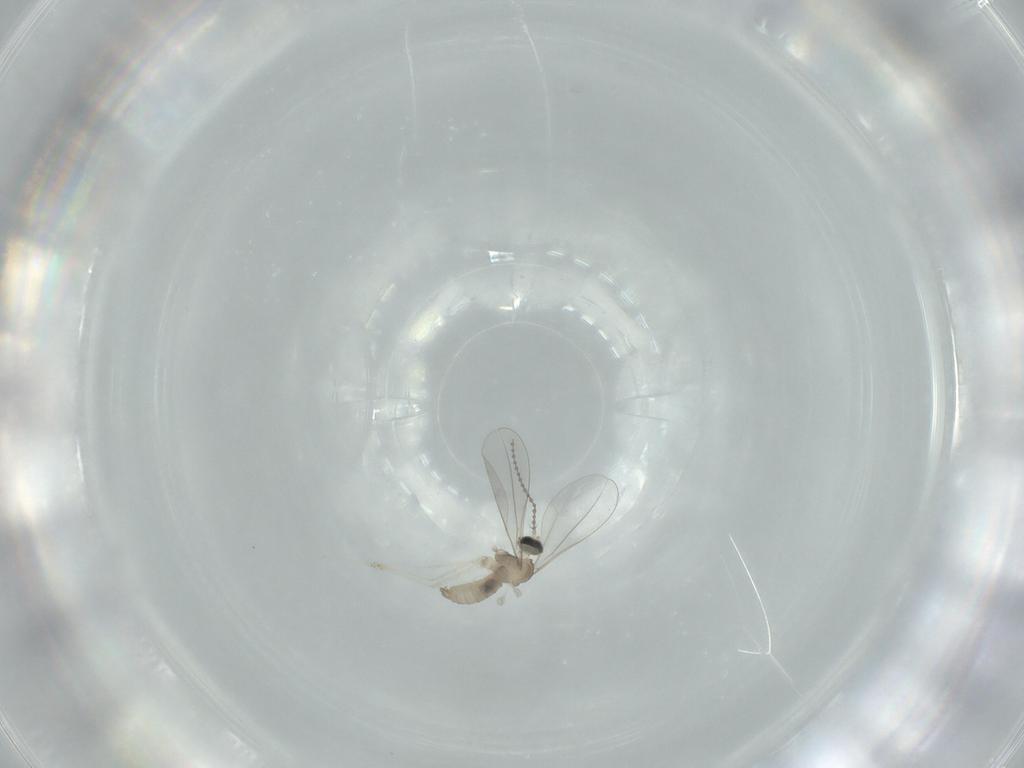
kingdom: Animalia
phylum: Arthropoda
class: Insecta
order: Diptera
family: Cecidomyiidae
